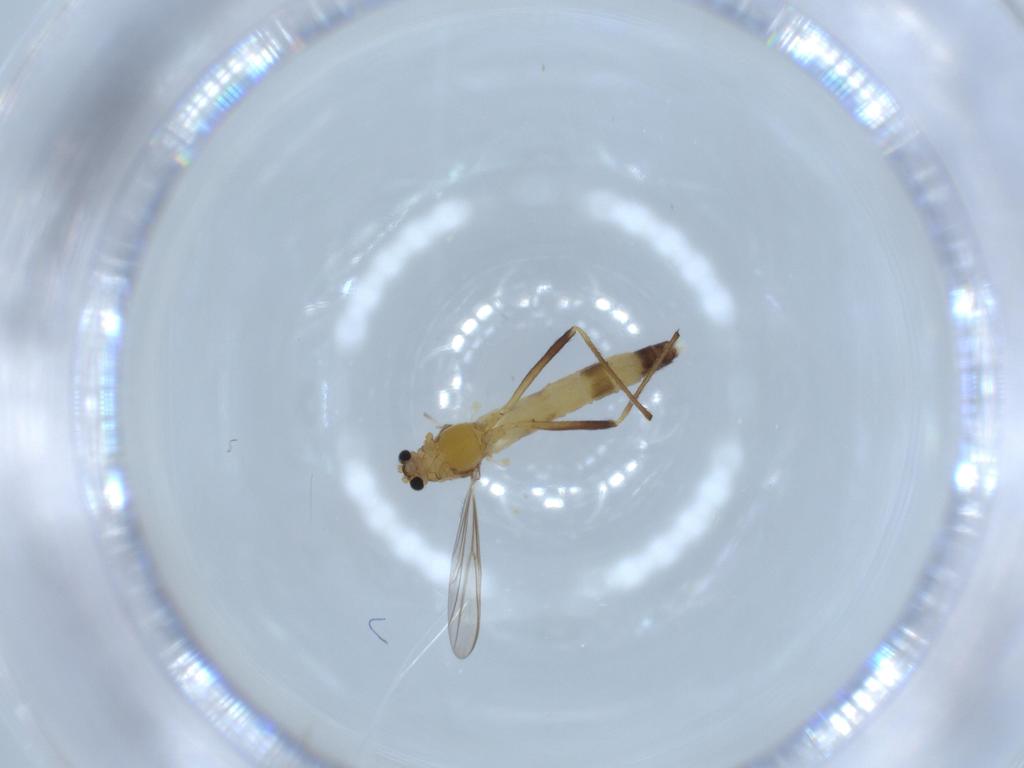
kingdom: Animalia
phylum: Arthropoda
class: Insecta
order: Diptera
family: Chironomidae
